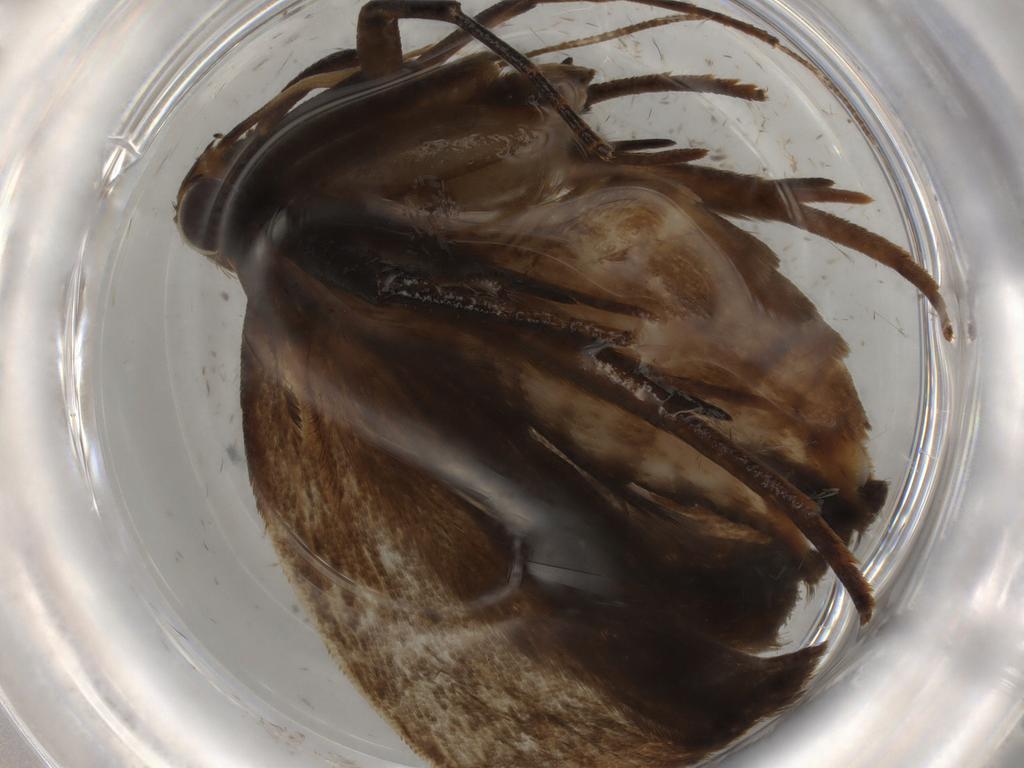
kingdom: Animalia
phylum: Arthropoda
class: Insecta
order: Lepidoptera
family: Gelechiidae
